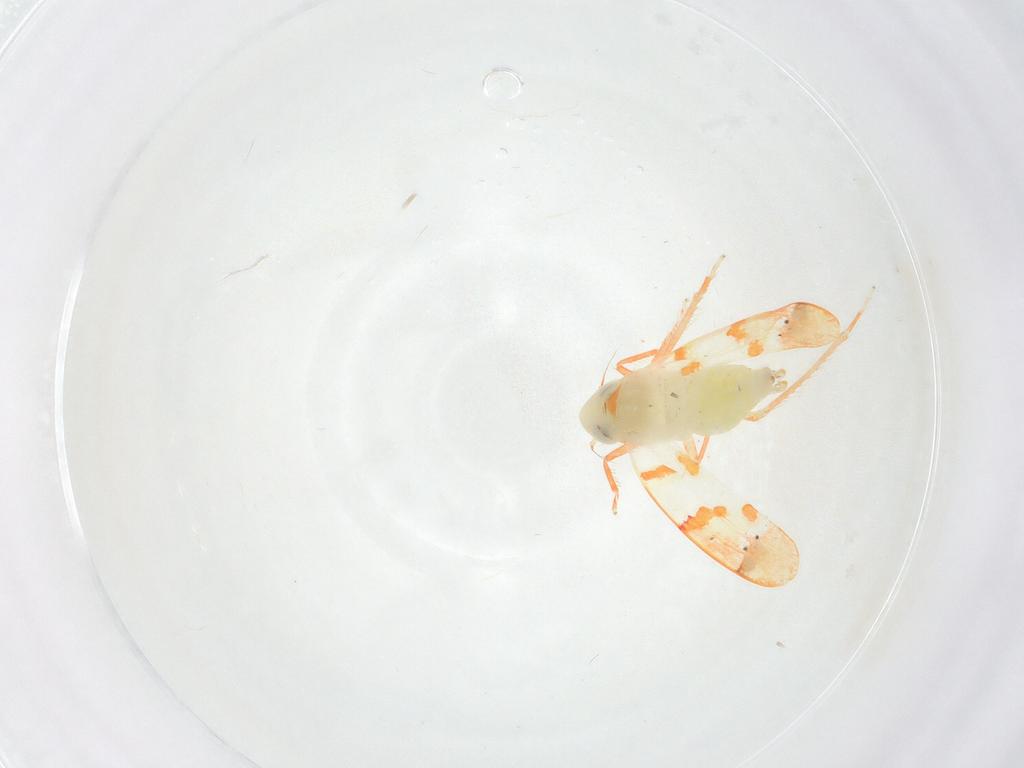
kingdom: Animalia
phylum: Arthropoda
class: Insecta
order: Hemiptera
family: Cicadellidae
